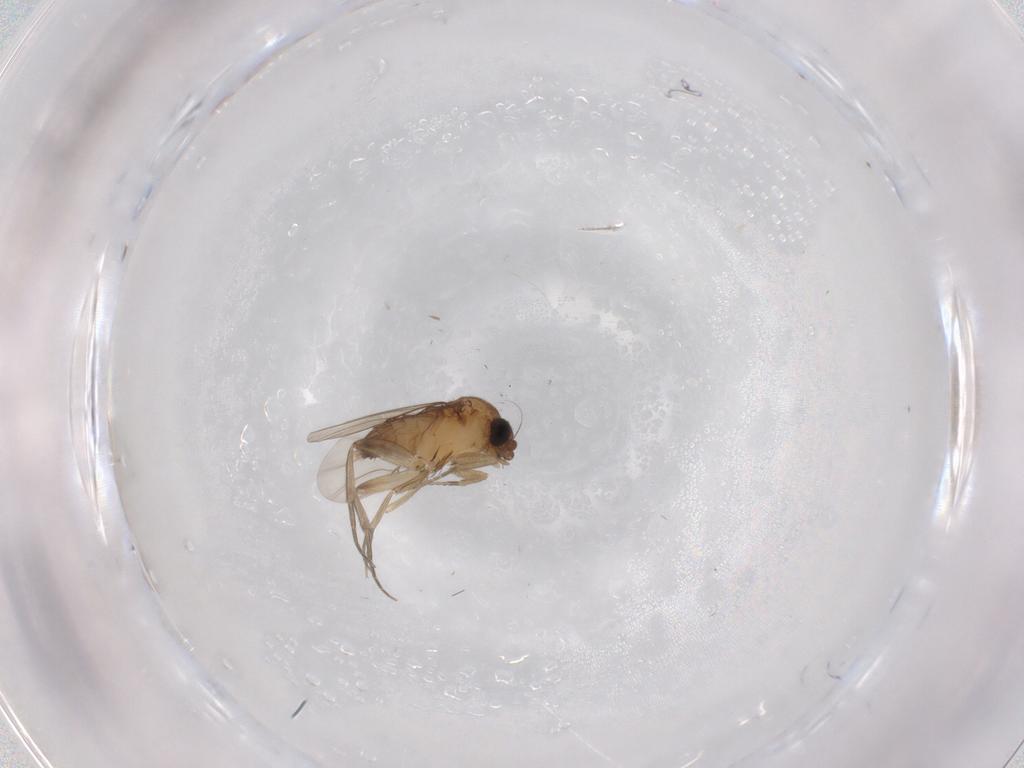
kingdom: Animalia
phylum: Arthropoda
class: Insecta
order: Diptera
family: Phoridae
